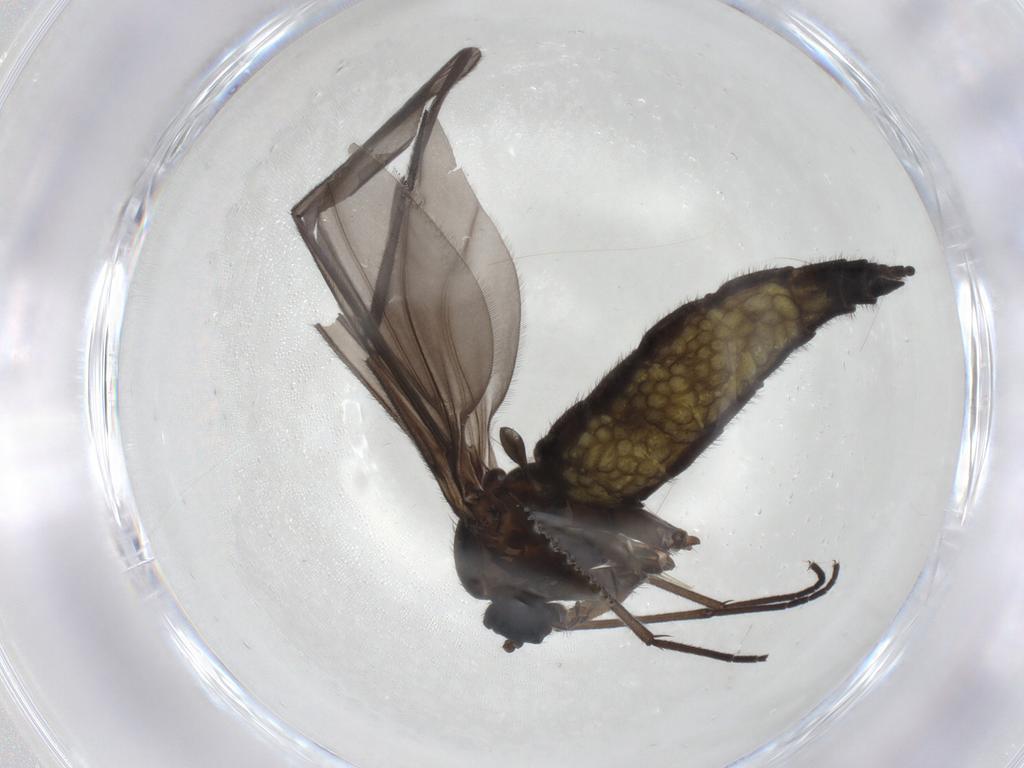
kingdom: Animalia
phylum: Arthropoda
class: Insecta
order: Diptera
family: Sciaridae
